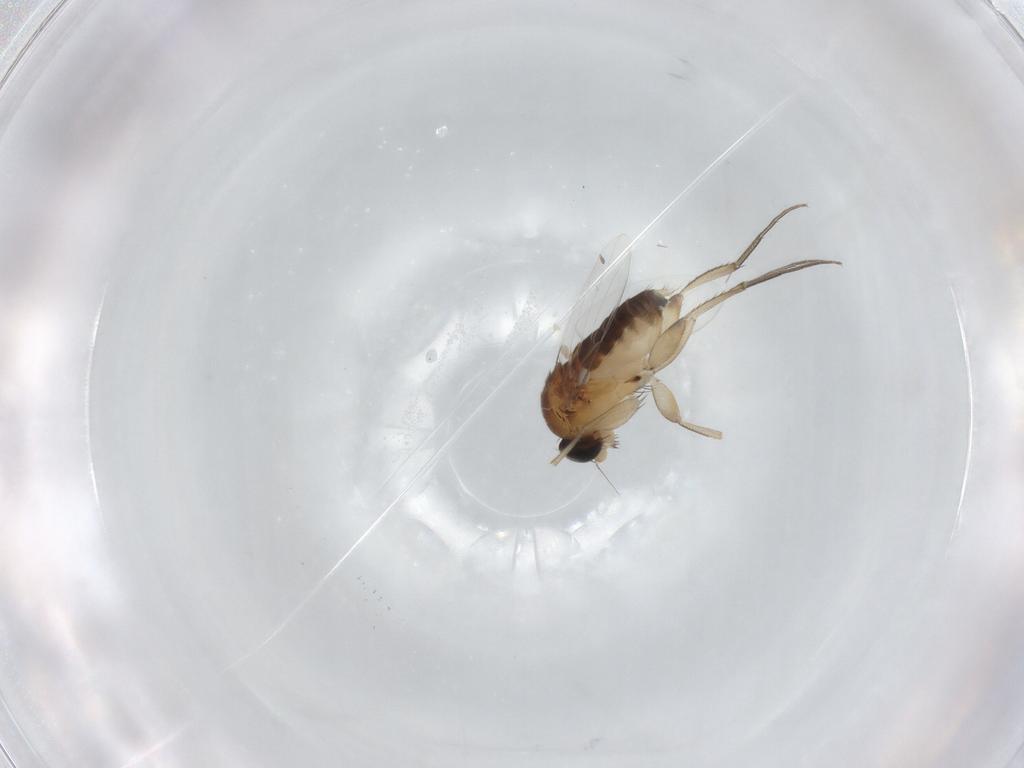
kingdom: Animalia
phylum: Arthropoda
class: Insecta
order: Diptera
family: Phoridae
